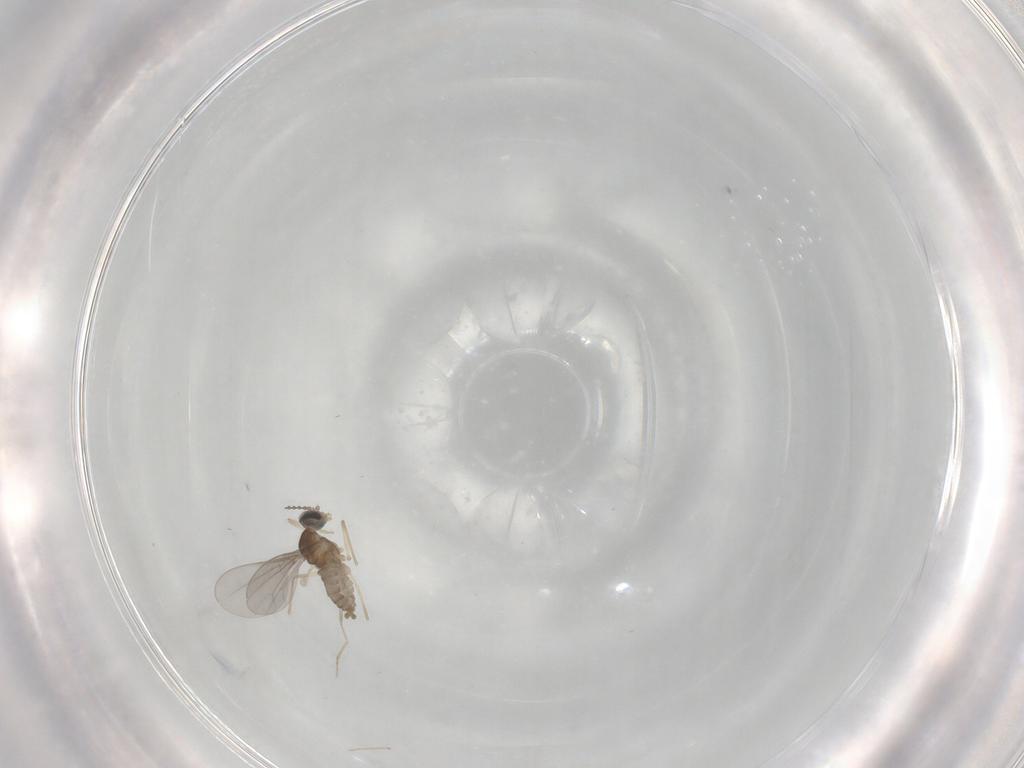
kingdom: Animalia
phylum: Arthropoda
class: Insecta
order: Diptera
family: Cecidomyiidae
